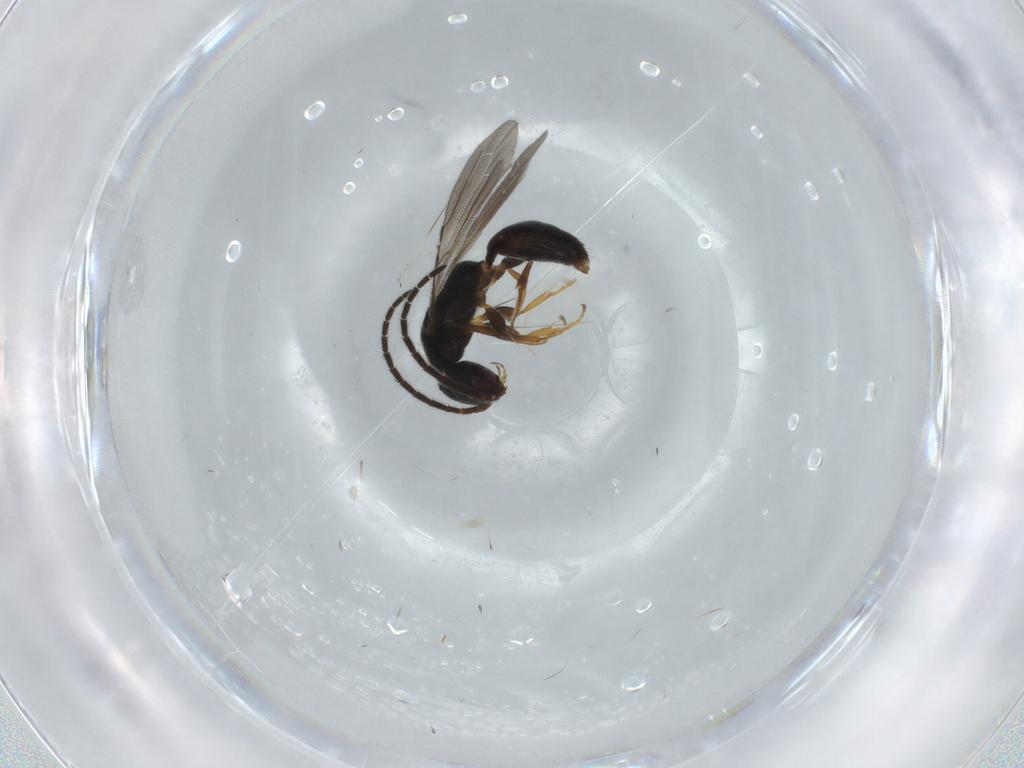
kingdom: Animalia
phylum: Arthropoda
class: Insecta
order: Hymenoptera
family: Bethylidae
